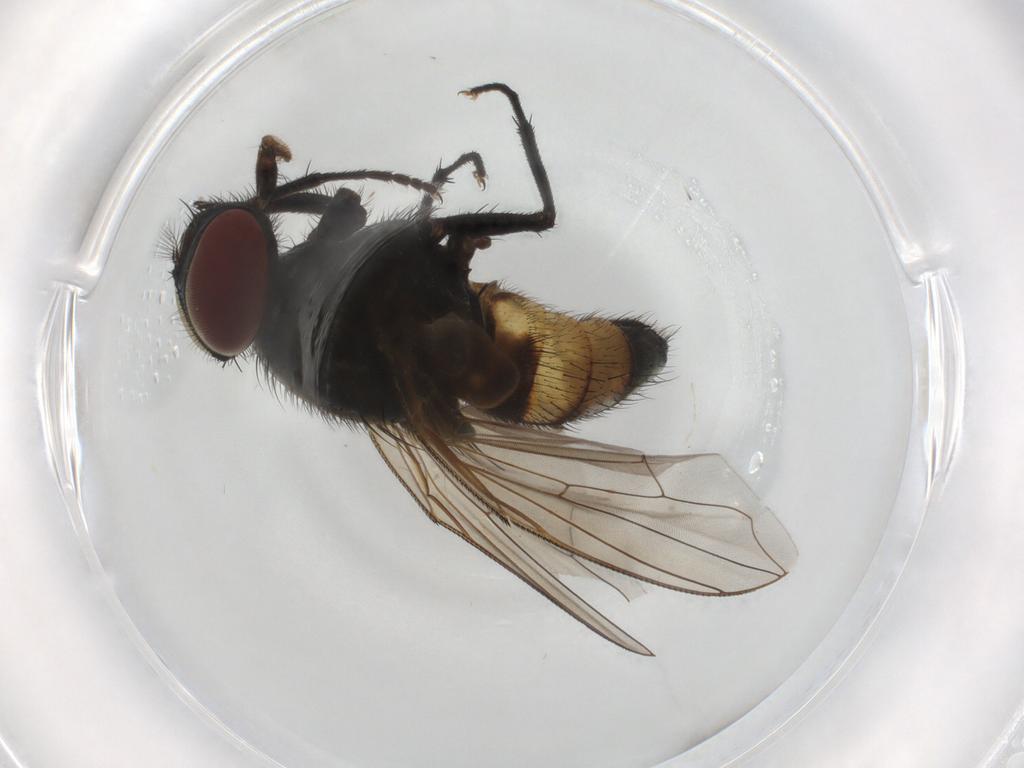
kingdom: Animalia
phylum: Arthropoda
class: Insecta
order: Diptera
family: Muscidae
